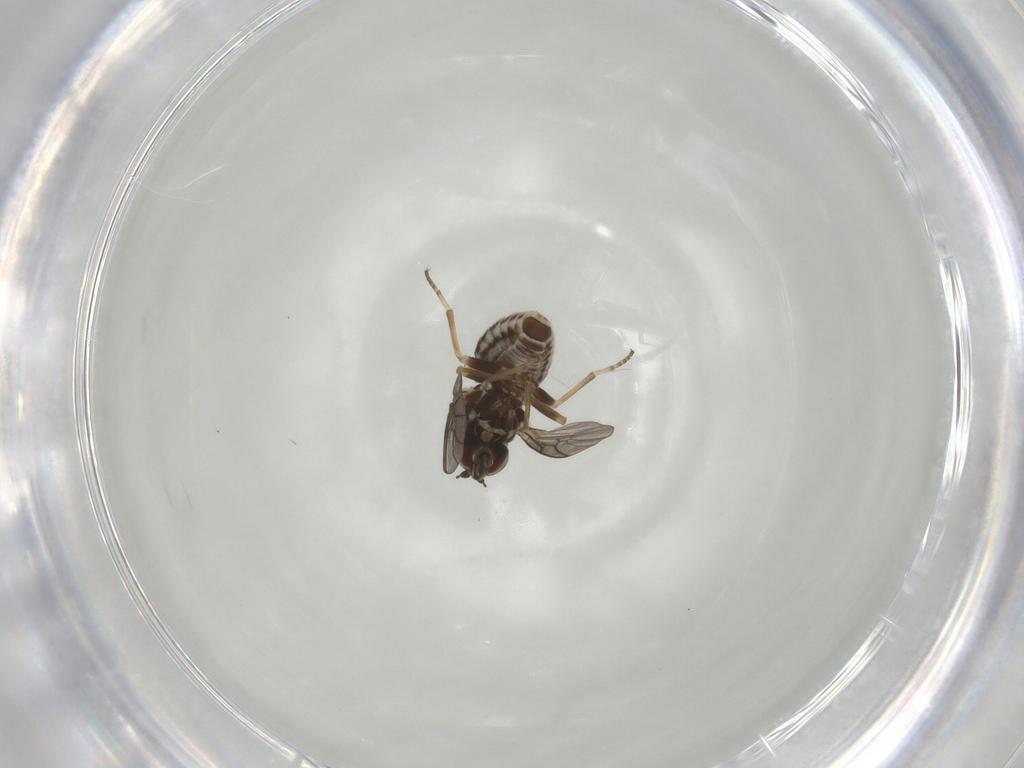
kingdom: Animalia
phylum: Arthropoda
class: Insecta
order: Diptera
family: Bombyliidae
